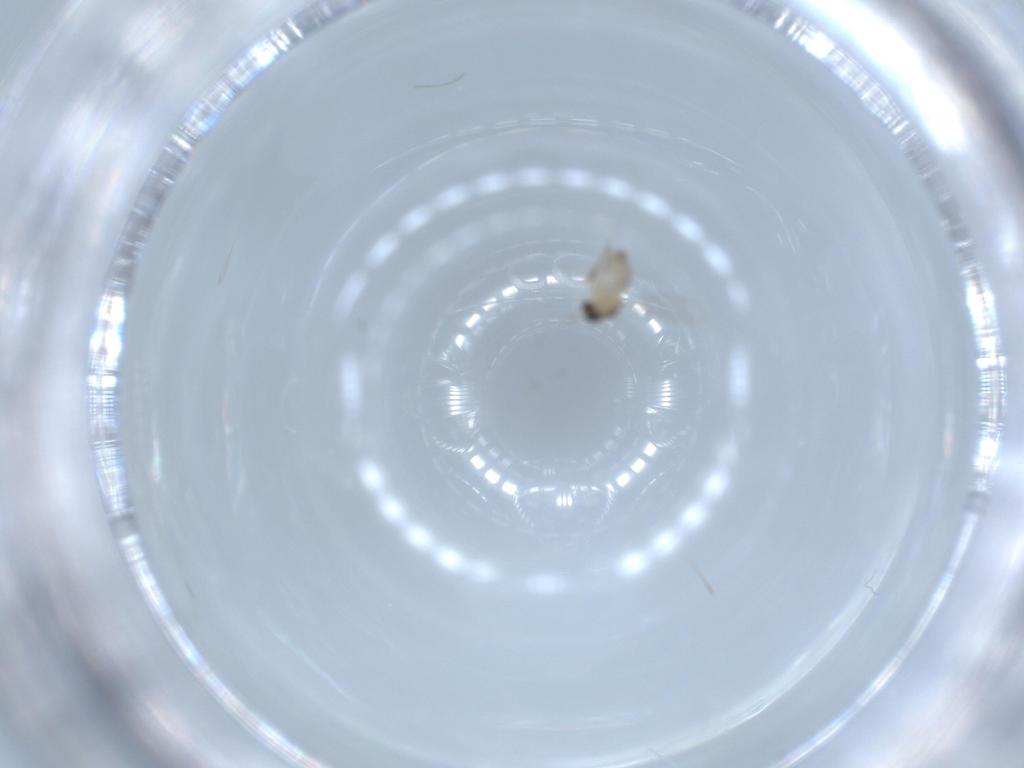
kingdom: Animalia
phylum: Arthropoda
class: Insecta
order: Diptera
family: Cecidomyiidae
